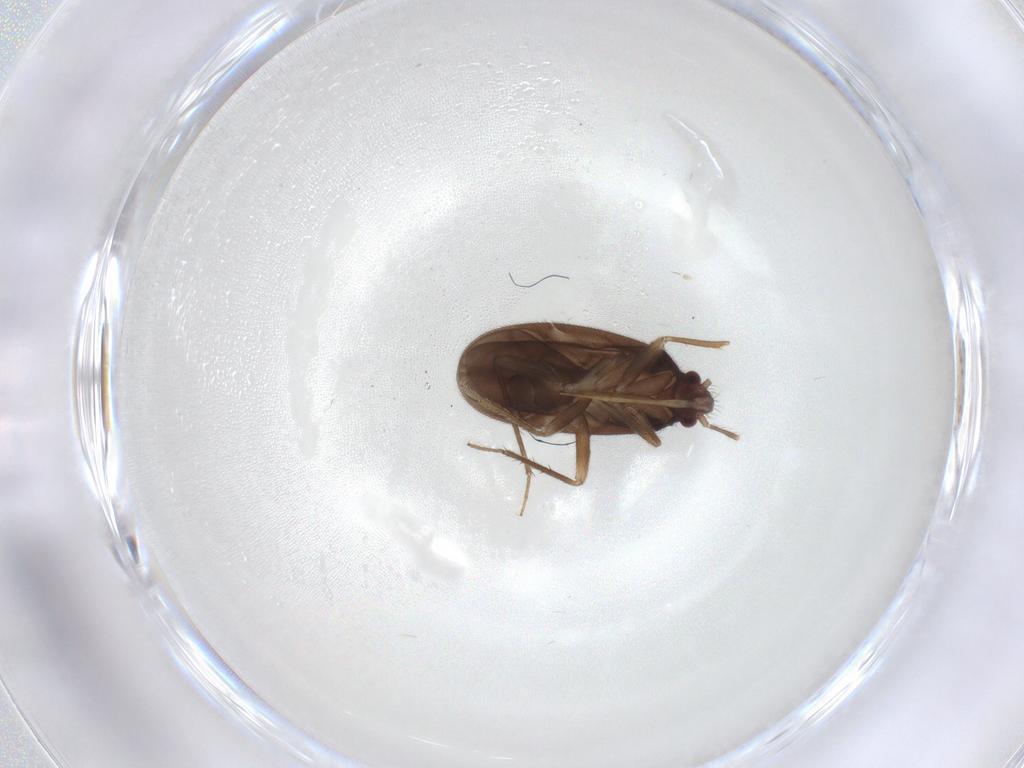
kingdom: Animalia
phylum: Arthropoda
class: Insecta
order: Hemiptera
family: Ceratocombidae
